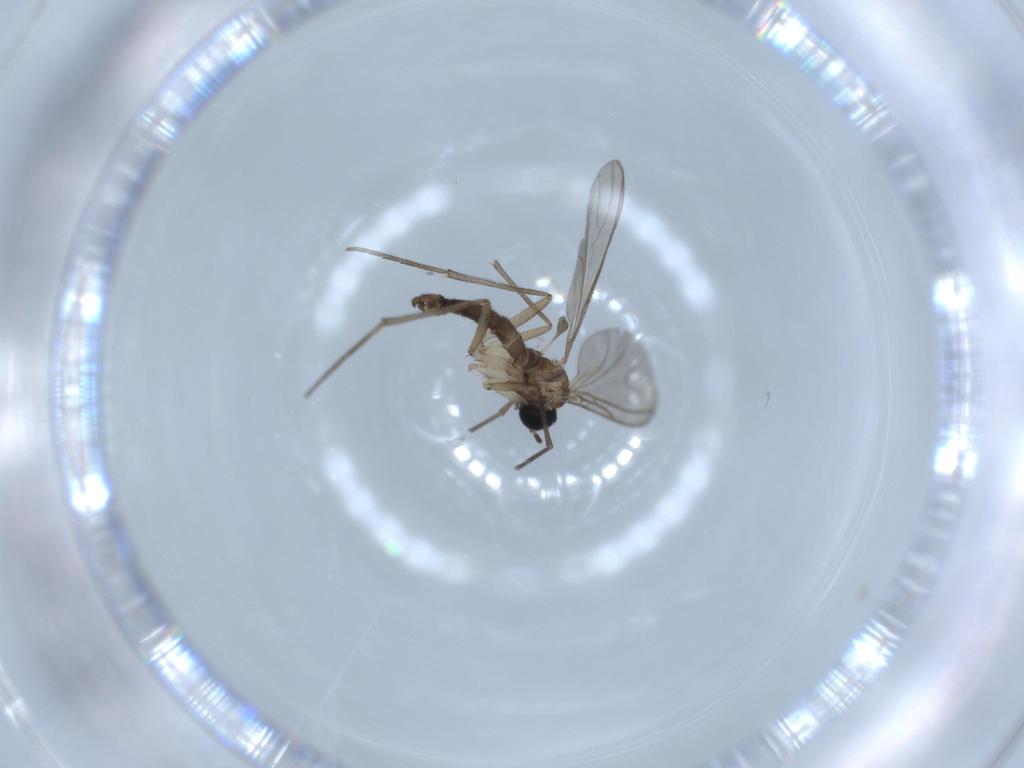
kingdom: Animalia
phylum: Arthropoda
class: Insecta
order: Diptera
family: Sciaridae
